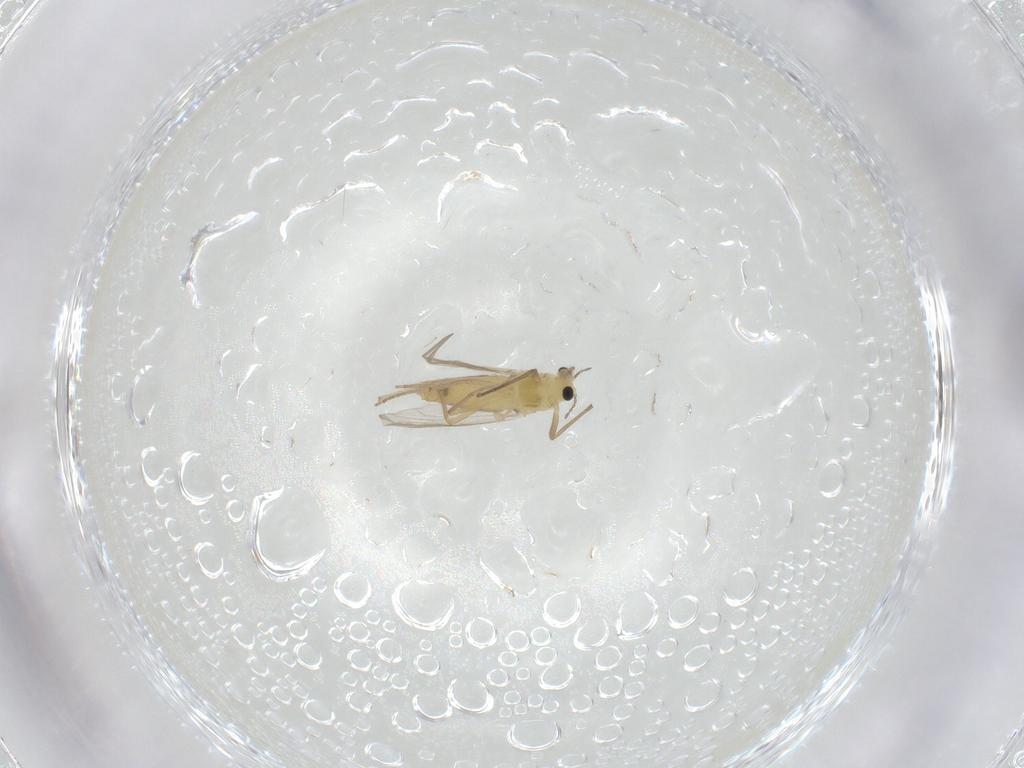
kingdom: Animalia
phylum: Arthropoda
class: Insecta
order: Diptera
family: Chironomidae
